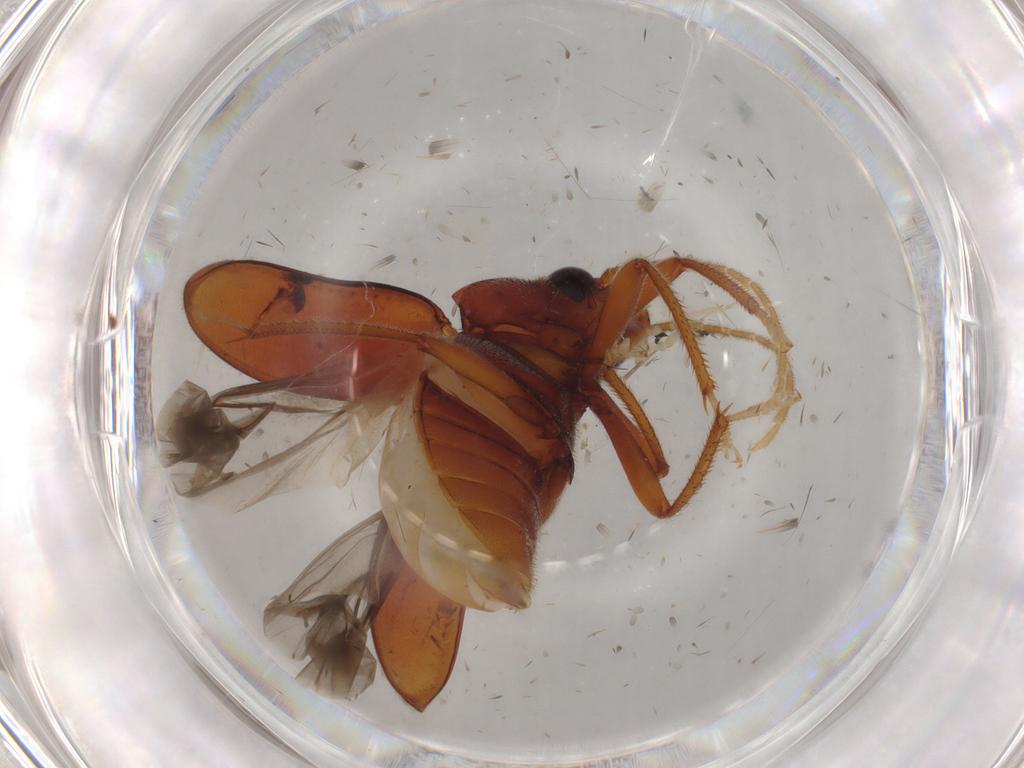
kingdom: Animalia
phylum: Arthropoda
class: Insecta
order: Coleoptera
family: Ptilodactylidae
